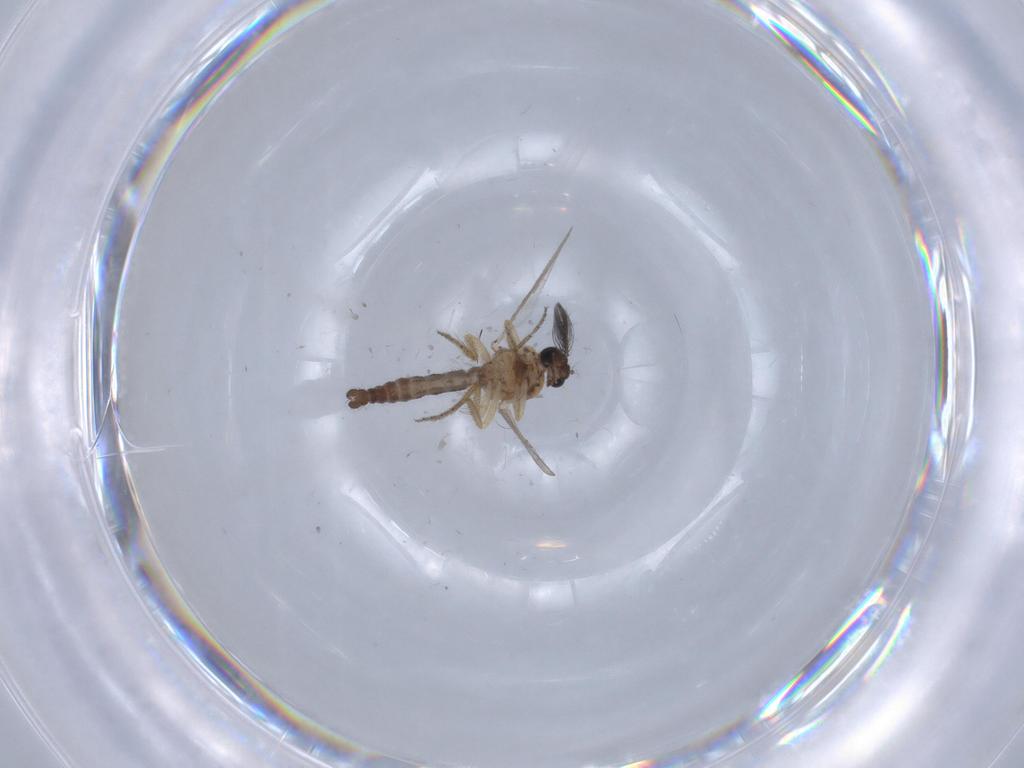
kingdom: Animalia
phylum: Arthropoda
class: Insecta
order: Diptera
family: Ceratopogonidae
